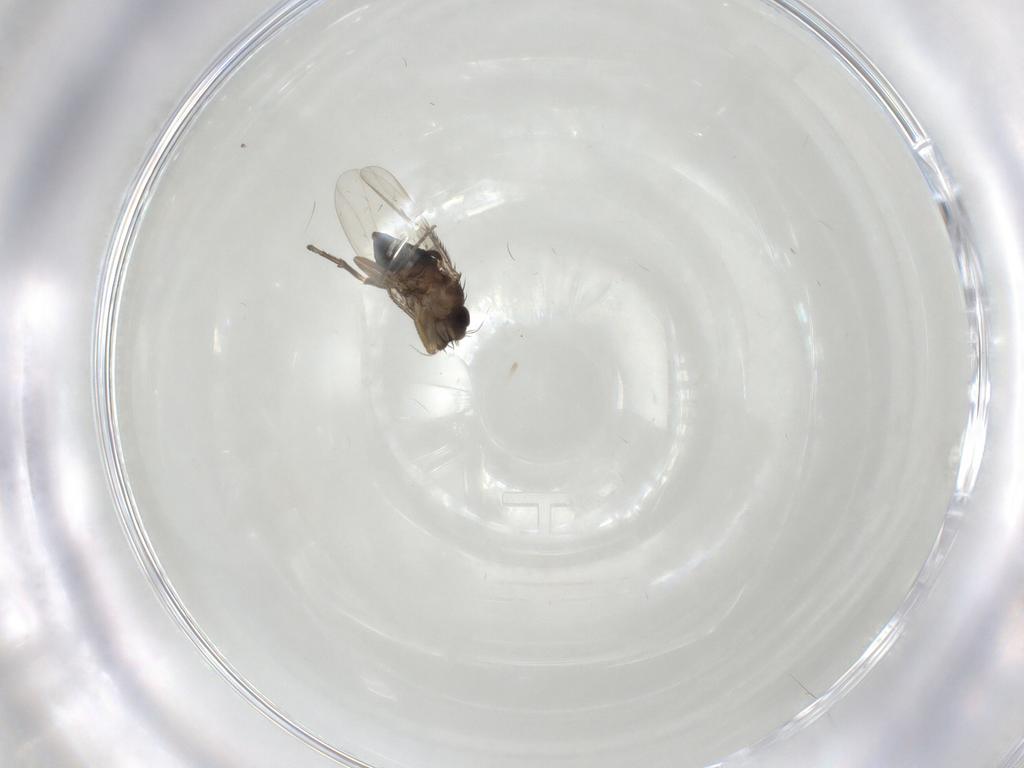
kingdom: Animalia
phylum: Arthropoda
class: Insecta
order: Diptera
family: Phoridae
